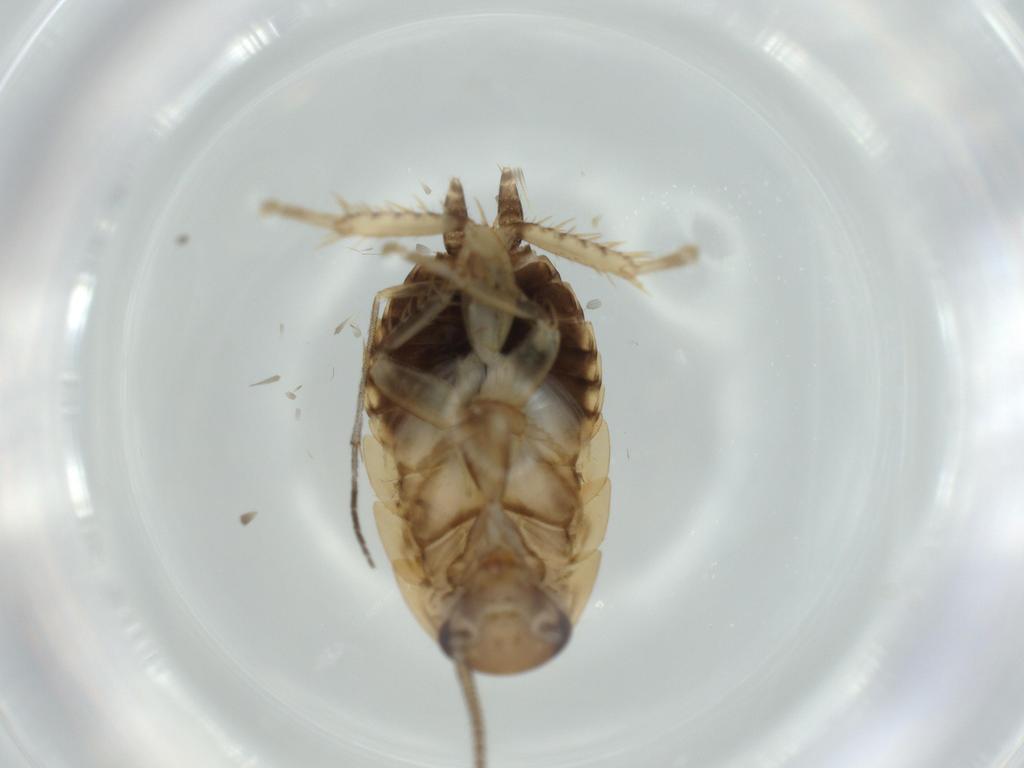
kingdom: Animalia
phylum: Arthropoda
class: Insecta
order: Blattodea
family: Ectobiidae
